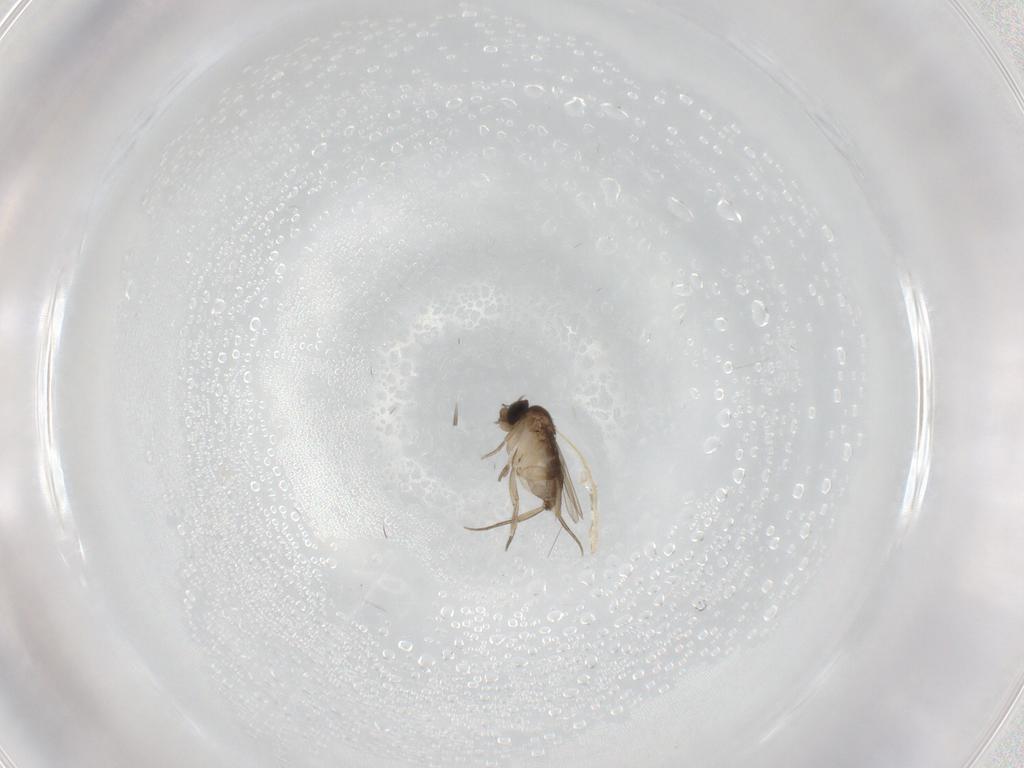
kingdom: Animalia
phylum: Arthropoda
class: Insecta
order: Diptera
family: Phoridae
